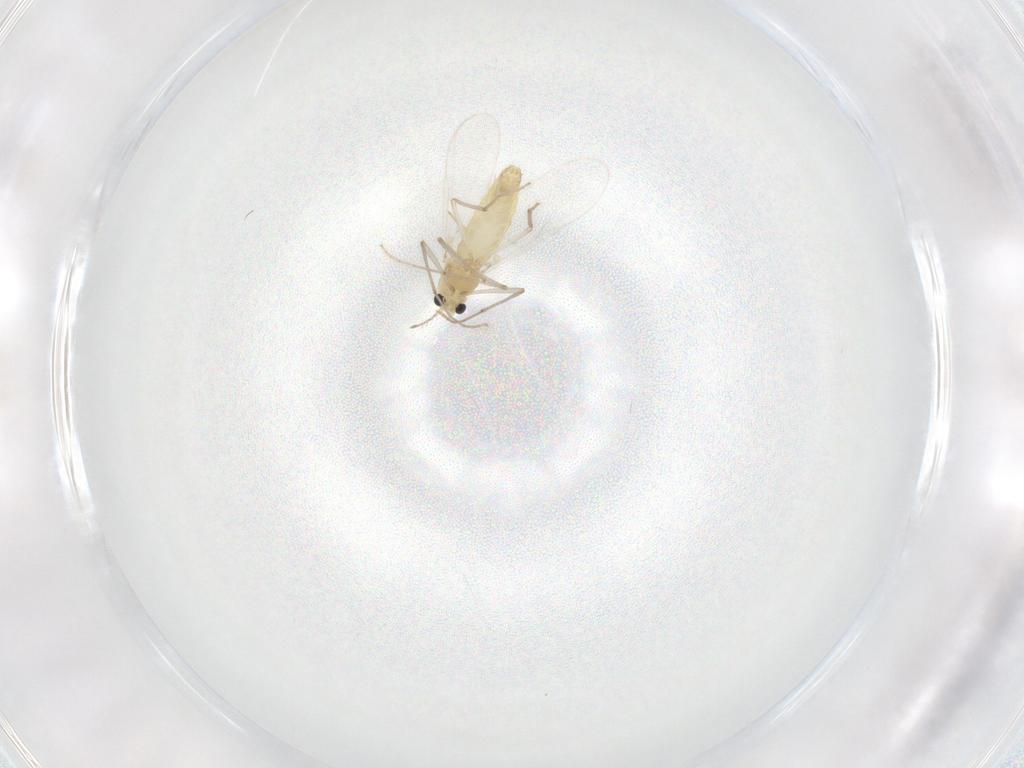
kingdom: Animalia
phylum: Arthropoda
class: Insecta
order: Diptera
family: Chironomidae
